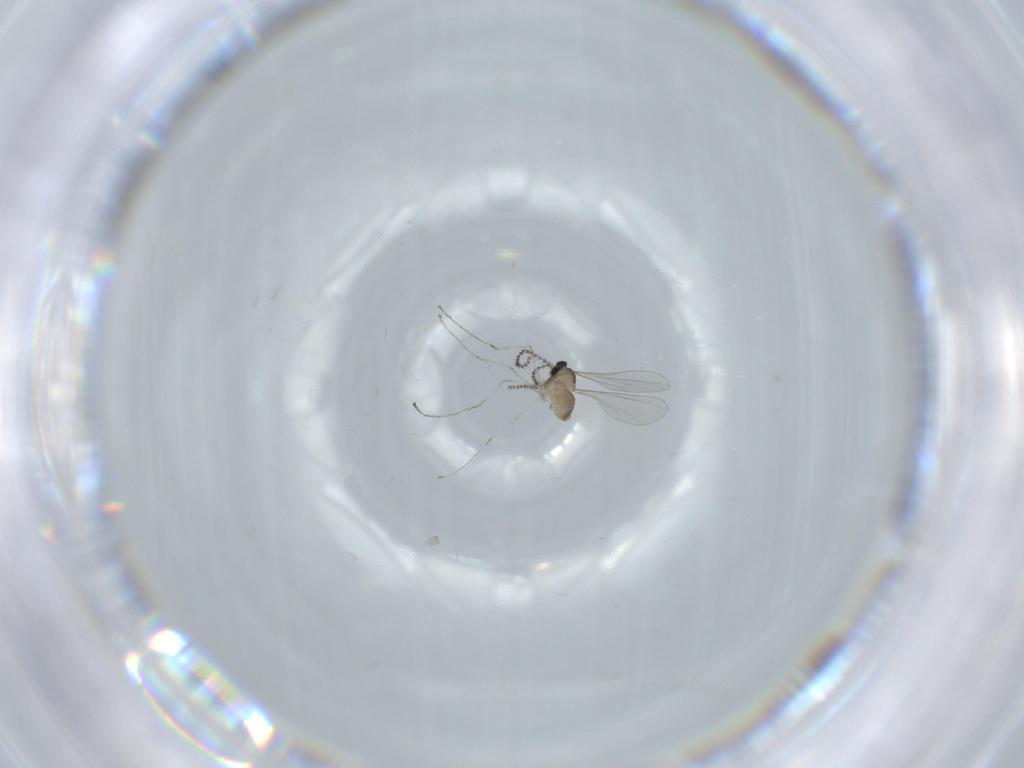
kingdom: Animalia
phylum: Arthropoda
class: Insecta
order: Diptera
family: Cecidomyiidae
